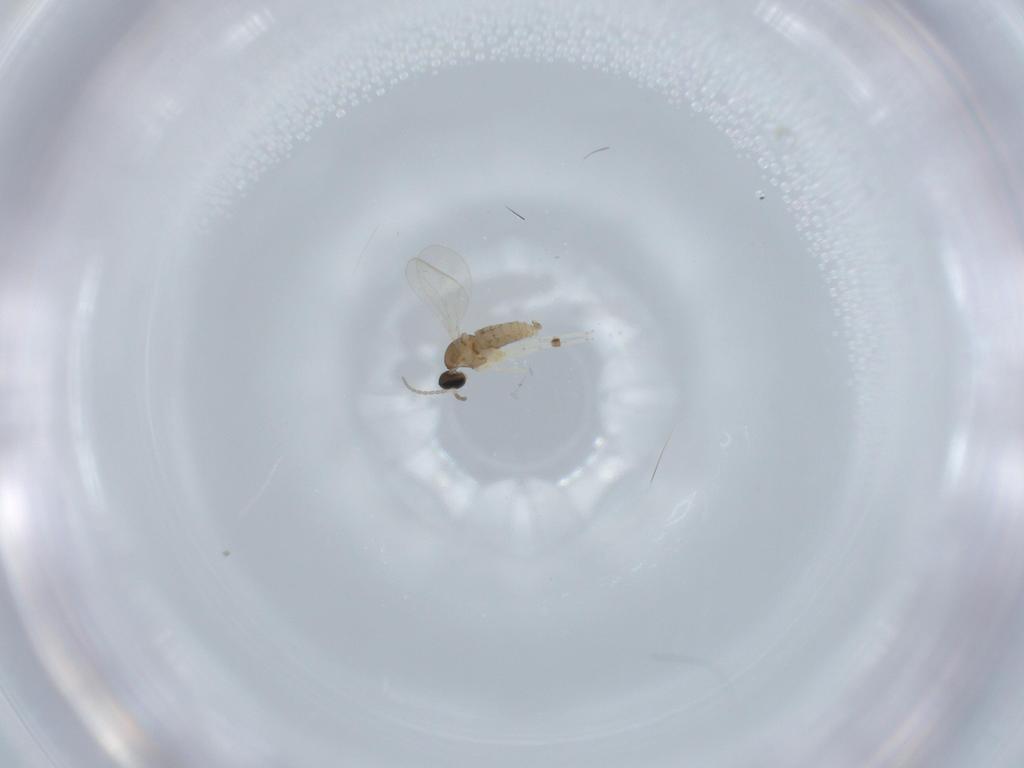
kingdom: Animalia
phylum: Arthropoda
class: Insecta
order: Diptera
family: Cecidomyiidae
